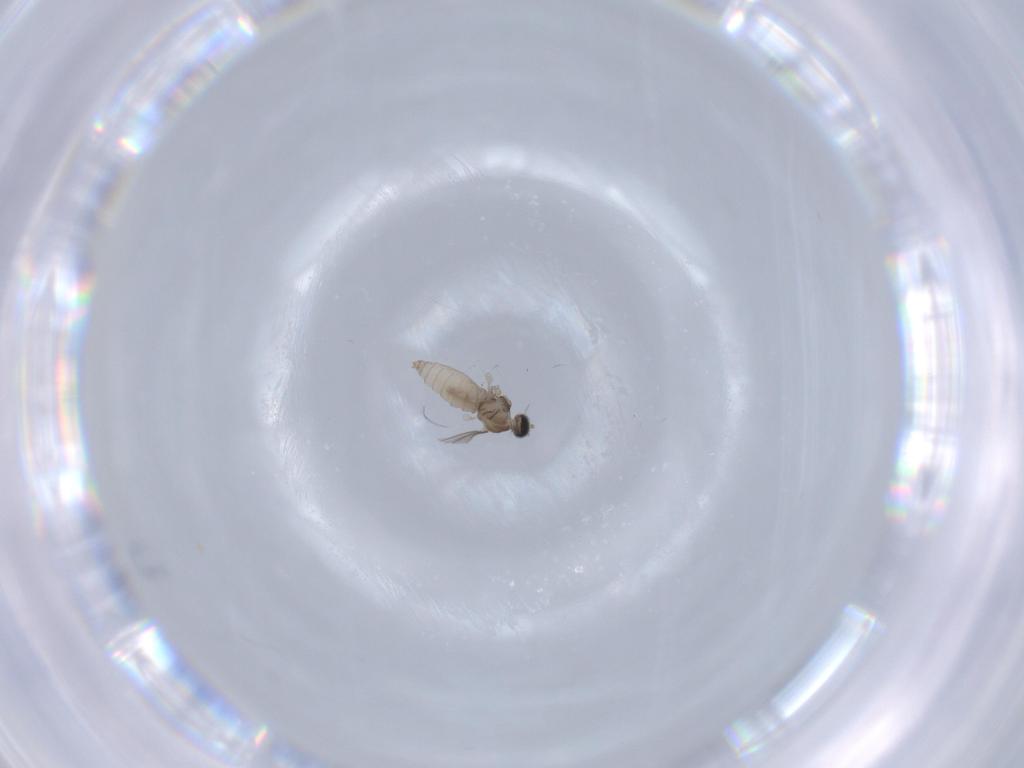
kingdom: Animalia
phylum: Arthropoda
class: Insecta
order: Diptera
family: Cecidomyiidae
